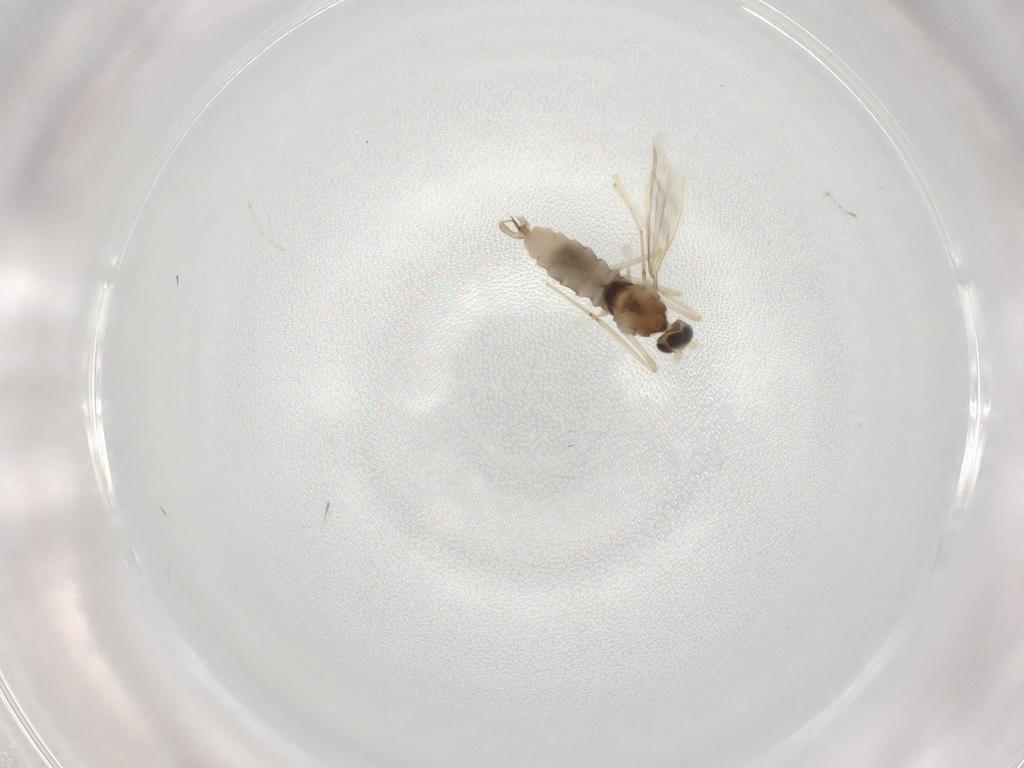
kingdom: Animalia
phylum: Arthropoda
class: Insecta
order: Diptera
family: Cecidomyiidae
